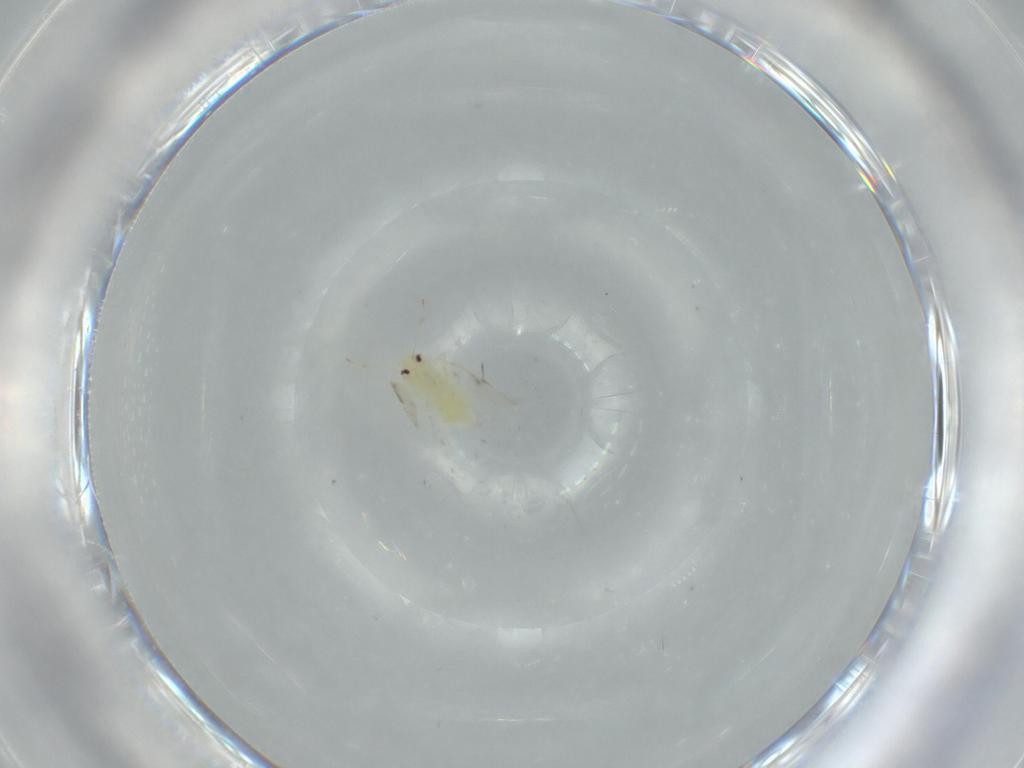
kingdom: Animalia
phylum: Arthropoda
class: Insecta
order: Hemiptera
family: Aleyrodidae
